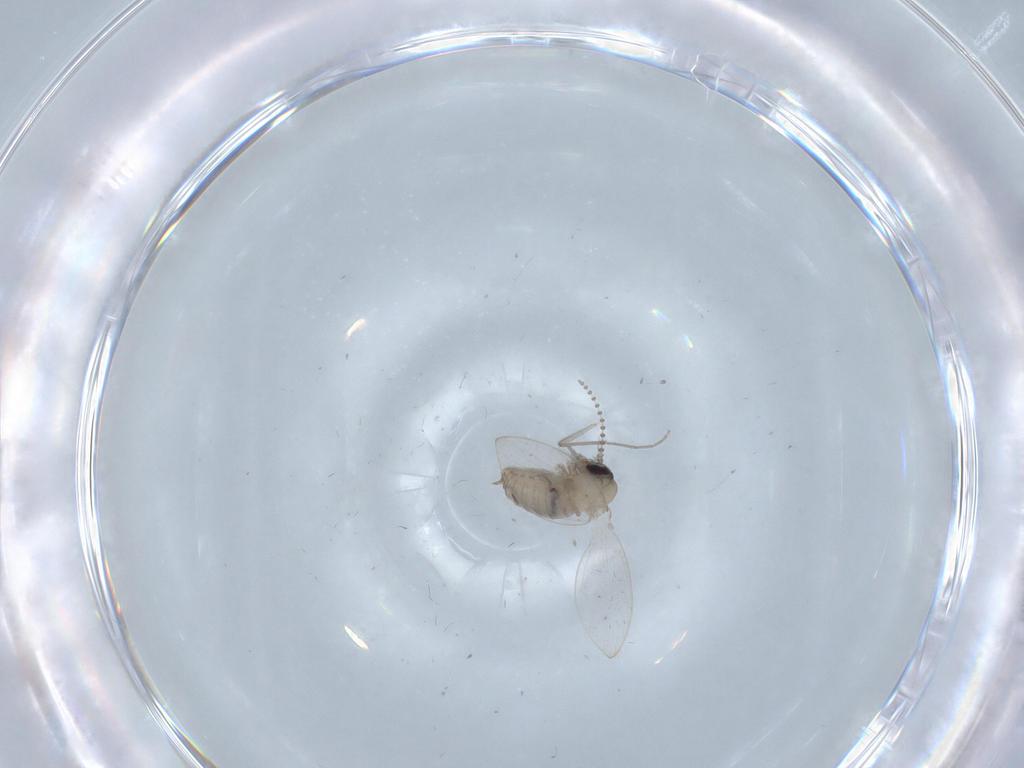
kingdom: Animalia
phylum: Arthropoda
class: Insecta
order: Diptera
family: Psychodidae
